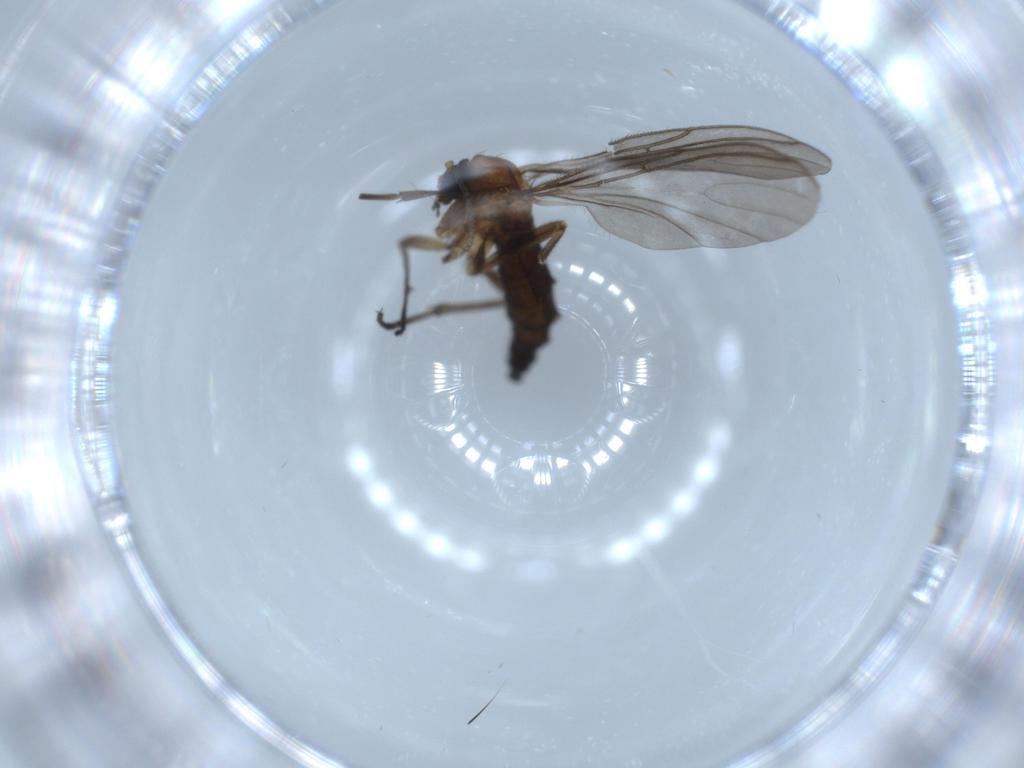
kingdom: Animalia
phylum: Arthropoda
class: Insecta
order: Diptera
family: Sciaridae
